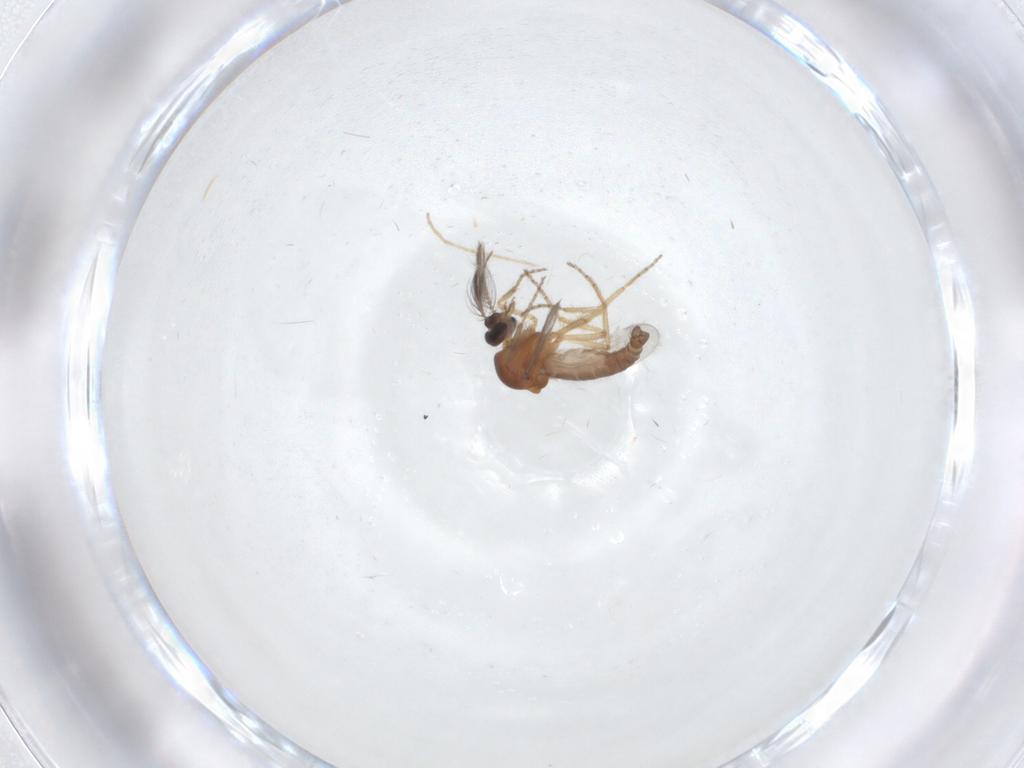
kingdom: Animalia
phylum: Arthropoda
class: Insecta
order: Diptera
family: Ceratopogonidae
